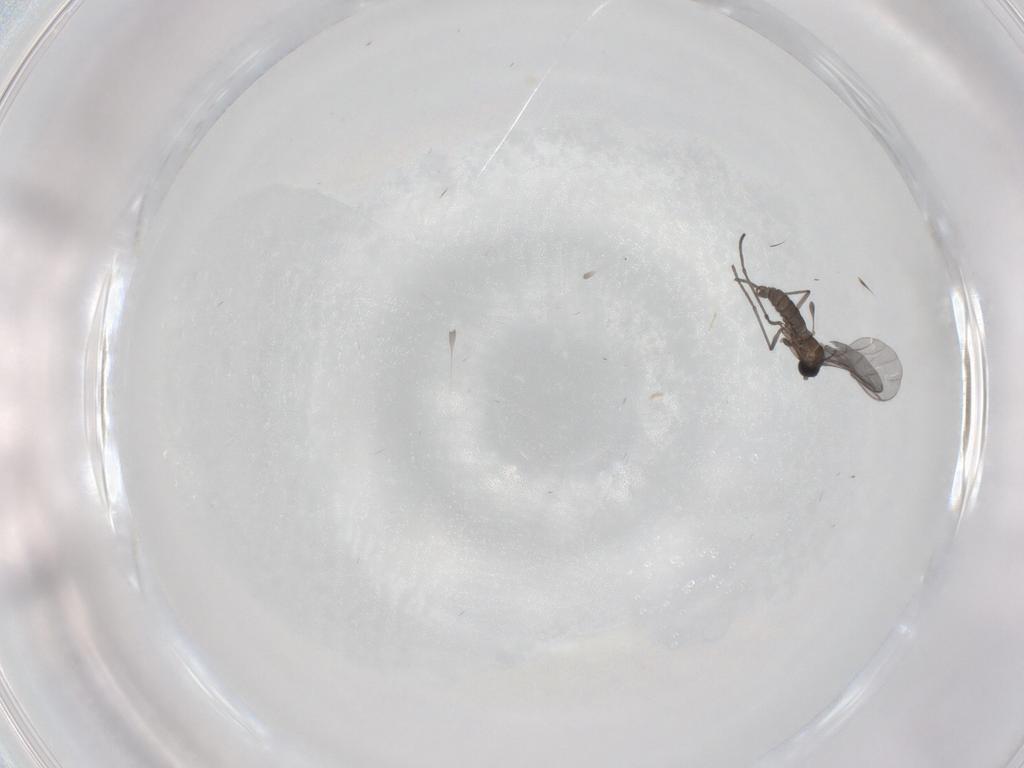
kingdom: Animalia
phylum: Arthropoda
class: Insecta
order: Diptera
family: Sciaridae
